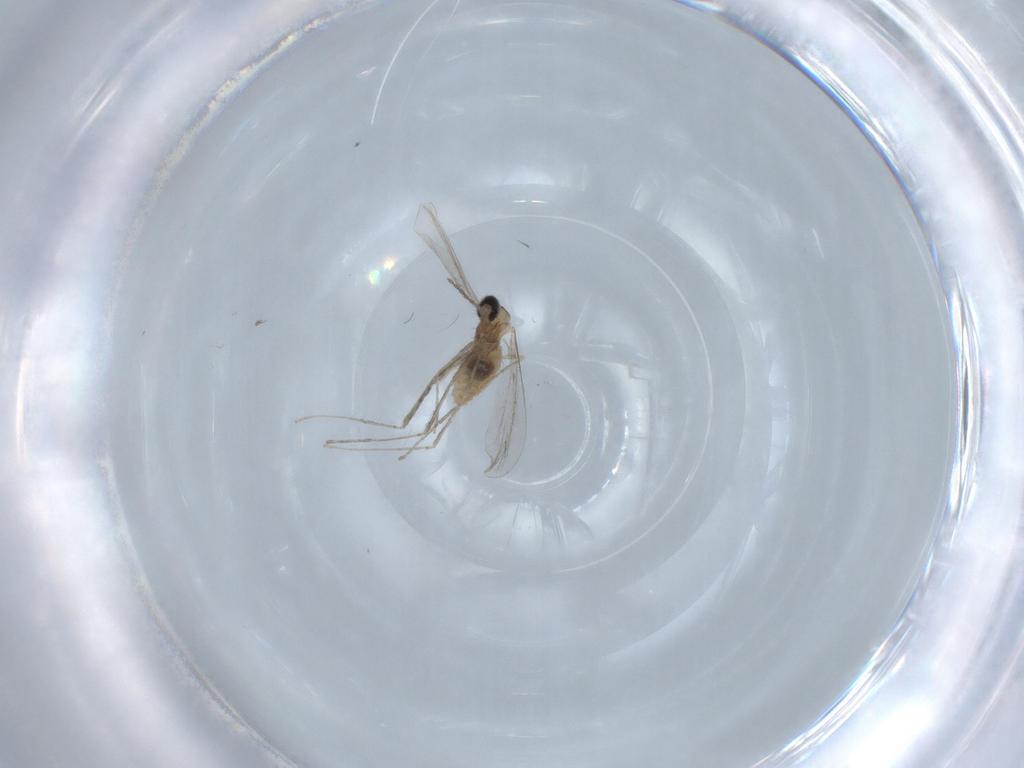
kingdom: Animalia
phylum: Arthropoda
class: Insecta
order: Diptera
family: Cecidomyiidae
